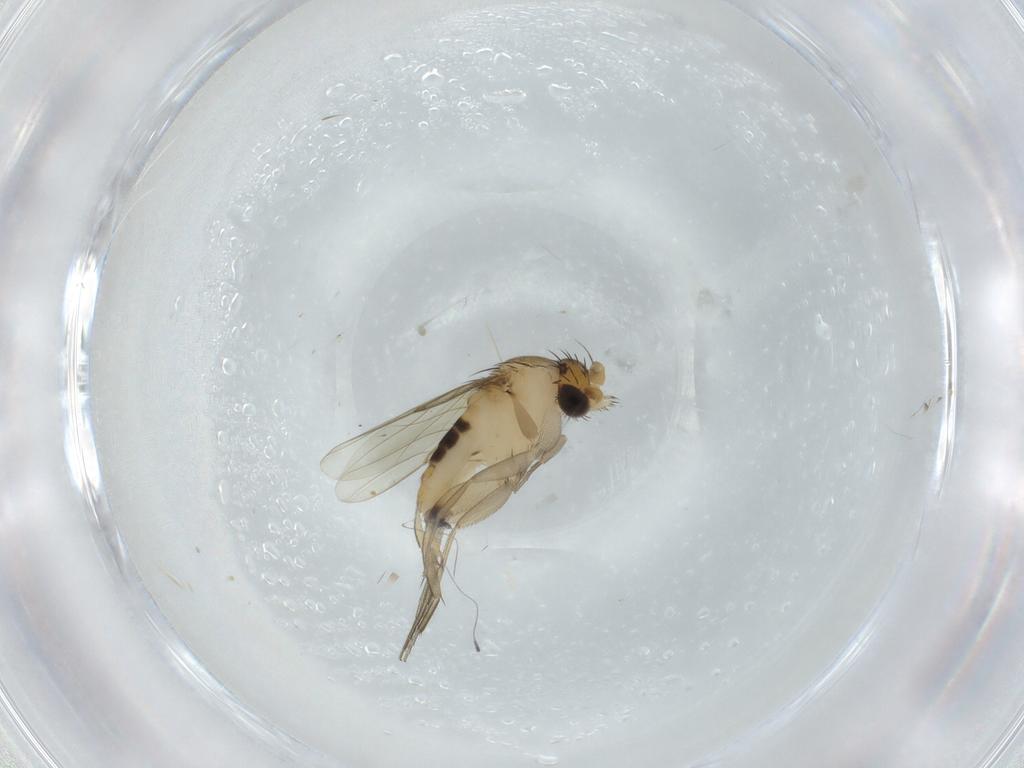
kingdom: Animalia
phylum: Arthropoda
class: Insecta
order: Diptera
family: Phoridae
